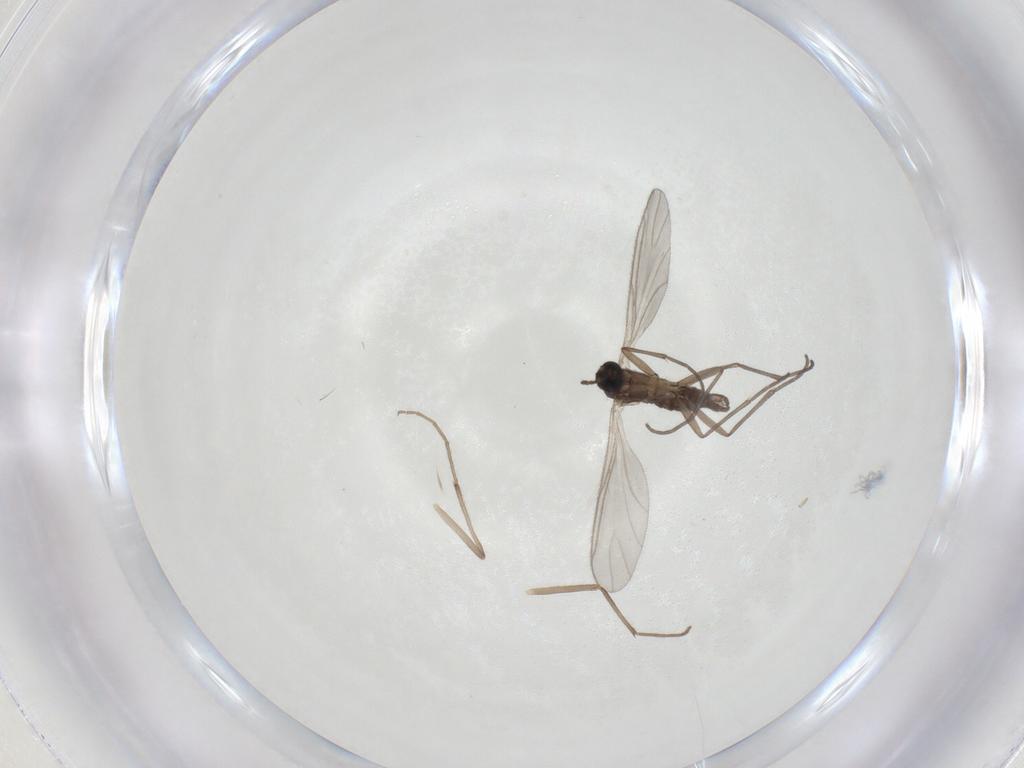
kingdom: Animalia
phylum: Arthropoda
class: Insecta
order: Diptera
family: Sciaridae
